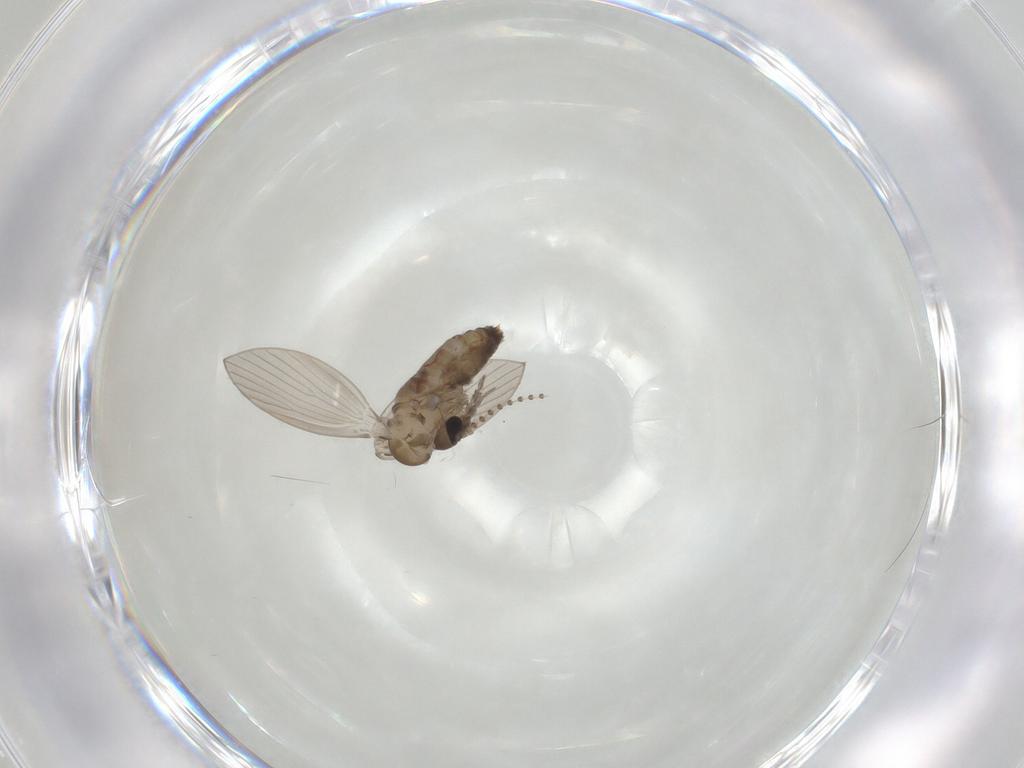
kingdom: Animalia
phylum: Arthropoda
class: Insecta
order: Diptera
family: Psychodidae
